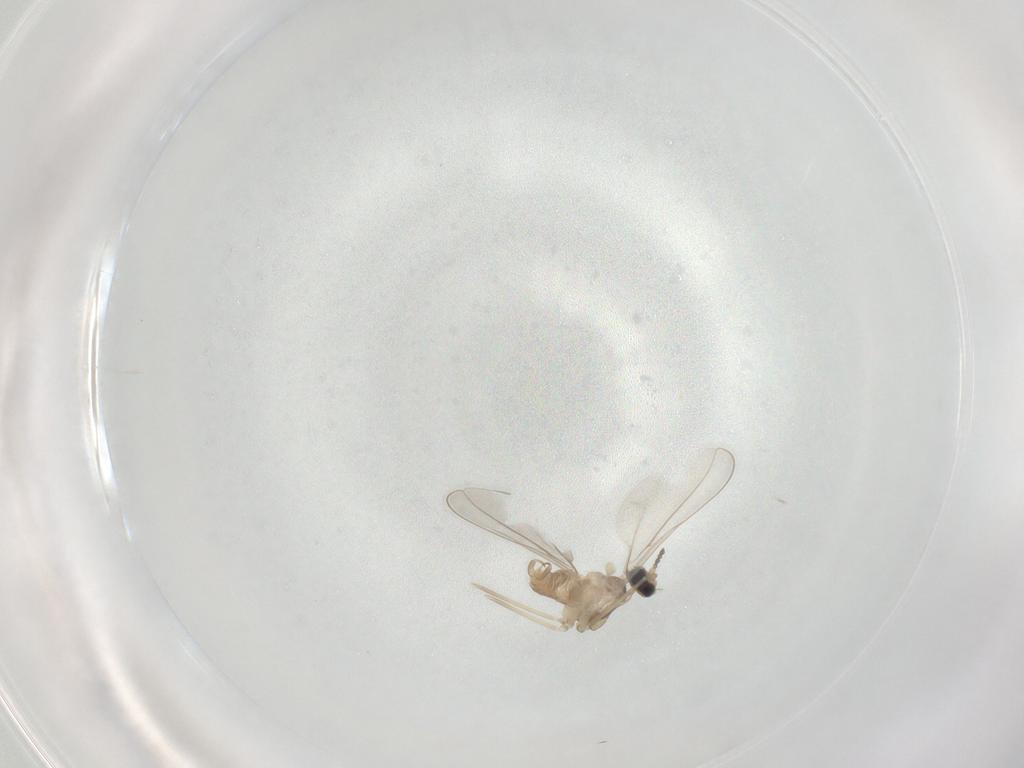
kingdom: Animalia
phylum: Arthropoda
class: Insecta
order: Diptera
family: Cecidomyiidae
